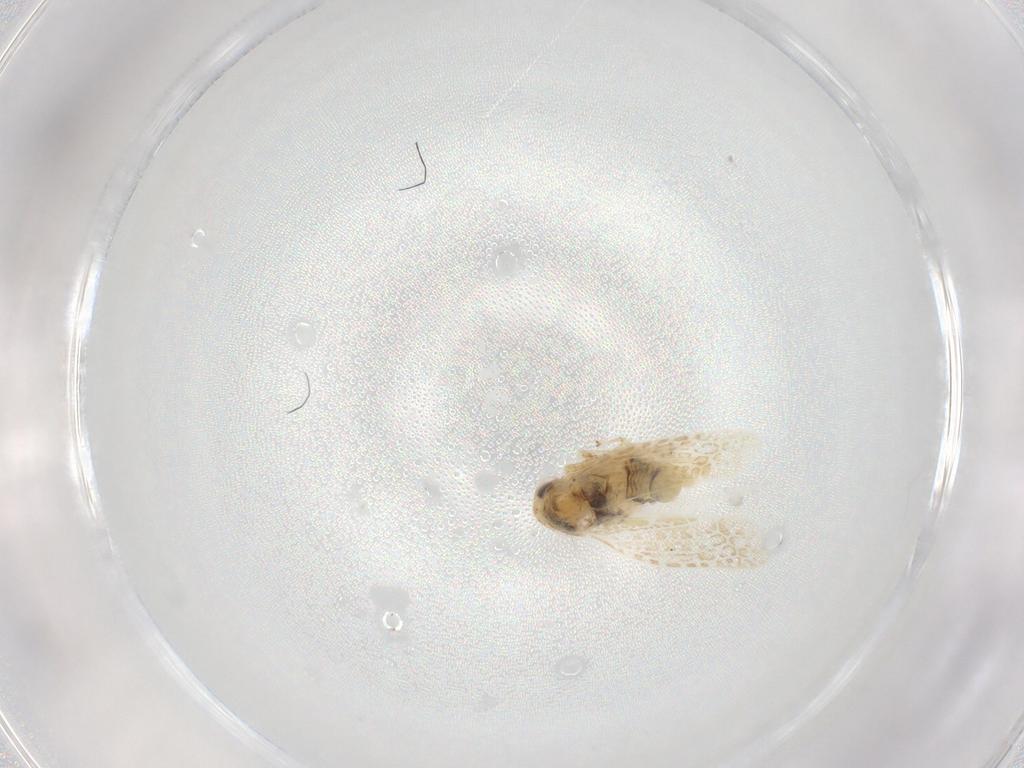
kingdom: Animalia
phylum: Arthropoda
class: Insecta
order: Hemiptera
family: Cicadellidae
